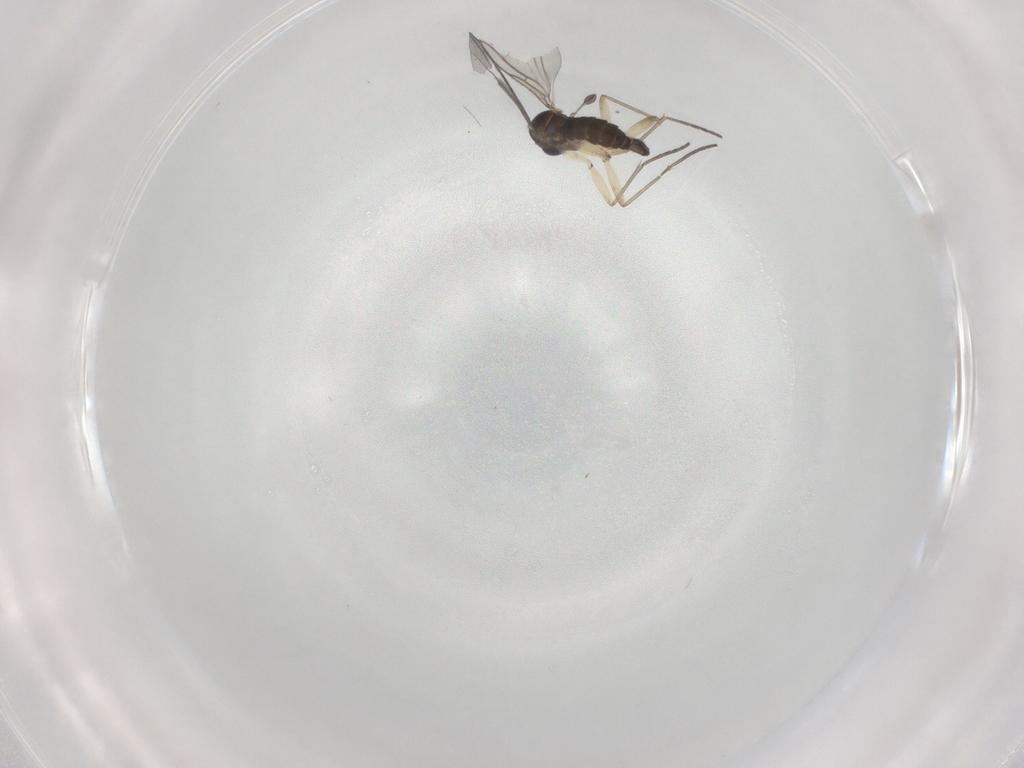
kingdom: Animalia
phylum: Arthropoda
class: Insecta
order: Diptera
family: Sciaridae
